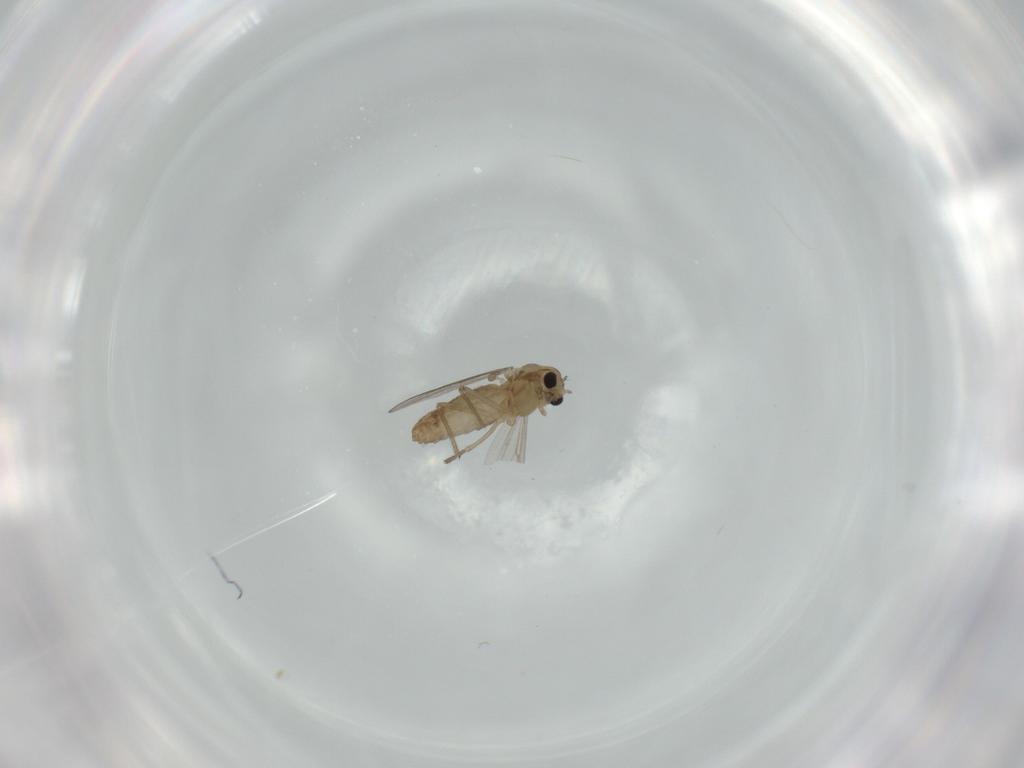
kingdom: Animalia
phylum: Arthropoda
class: Insecta
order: Diptera
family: Chironomidae
